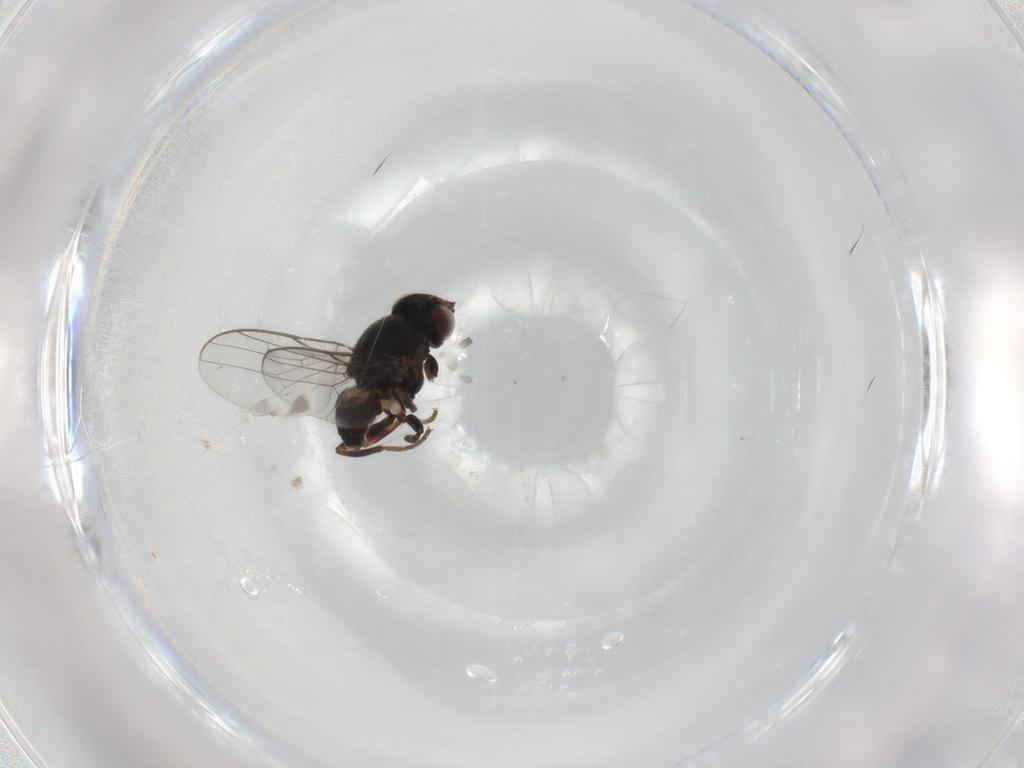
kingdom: Animalia
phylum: Arthropoda
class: Insecta
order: Diptera
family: Chloropidae
